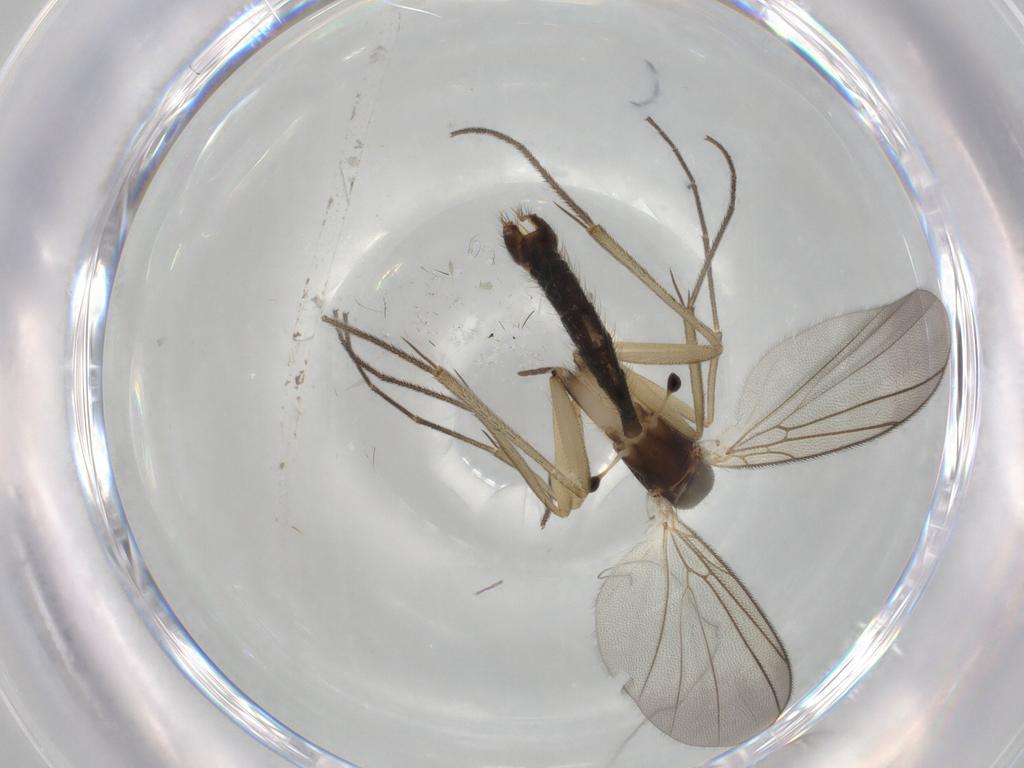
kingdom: Animalia
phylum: Arthropoda
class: Insecta
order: Diptera
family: Mycetophilidae
